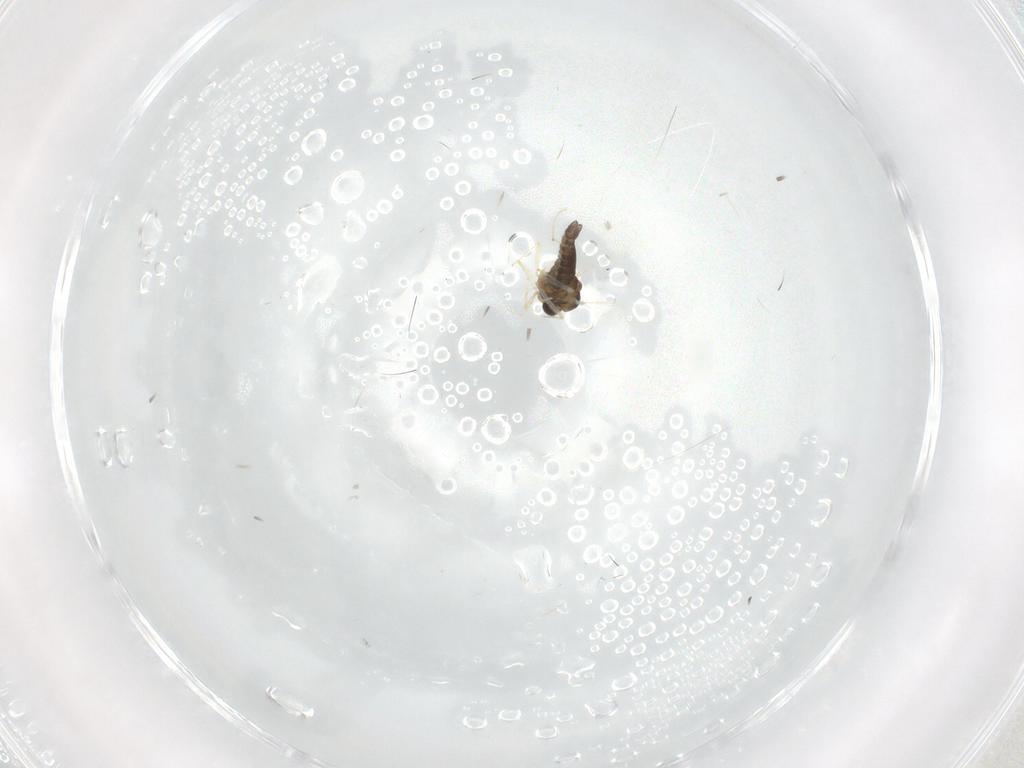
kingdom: Animalia
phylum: Arthropoda
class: Insecta
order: Diptera
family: Chironomidae
